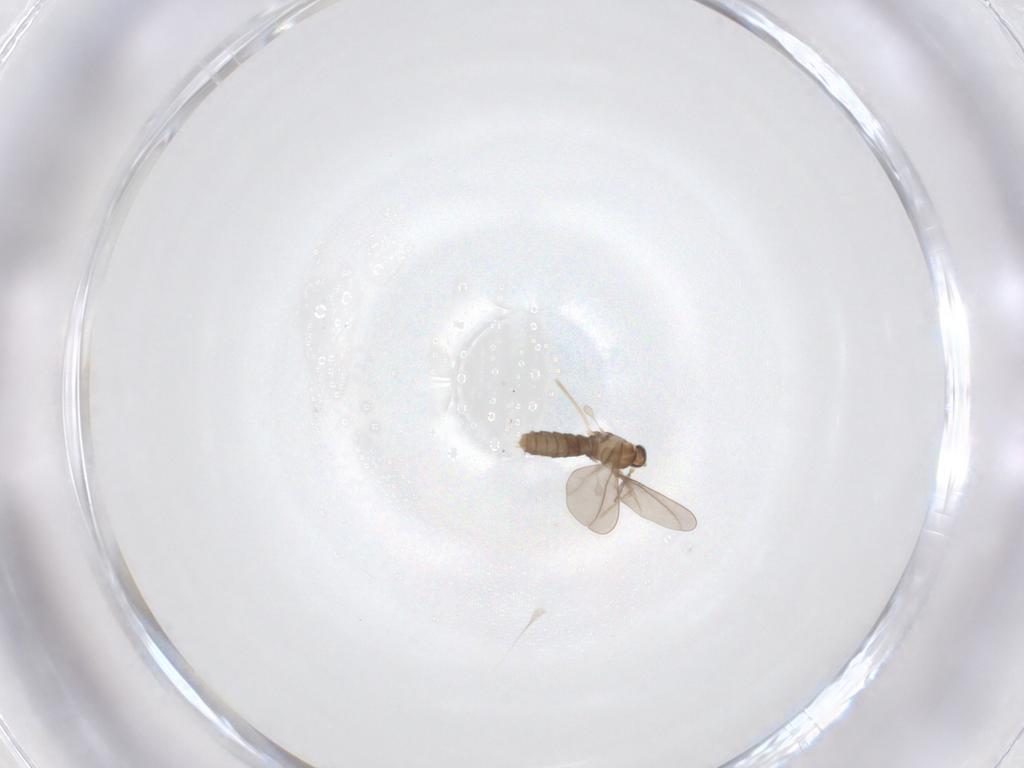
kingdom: Animalia
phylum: Arthropoda
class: Insecta
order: Diptera
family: Cecidomyiidae
